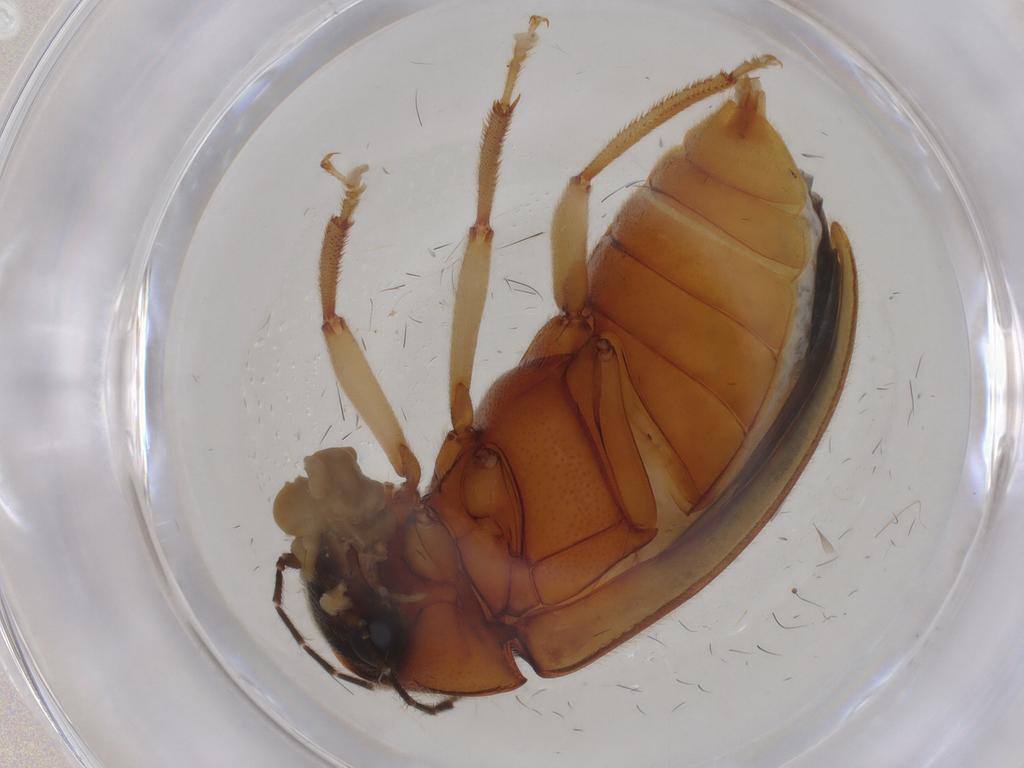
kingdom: Animalia
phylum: Arthropoda
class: Insecta
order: Coleoptera
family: Ptilodactylidae
